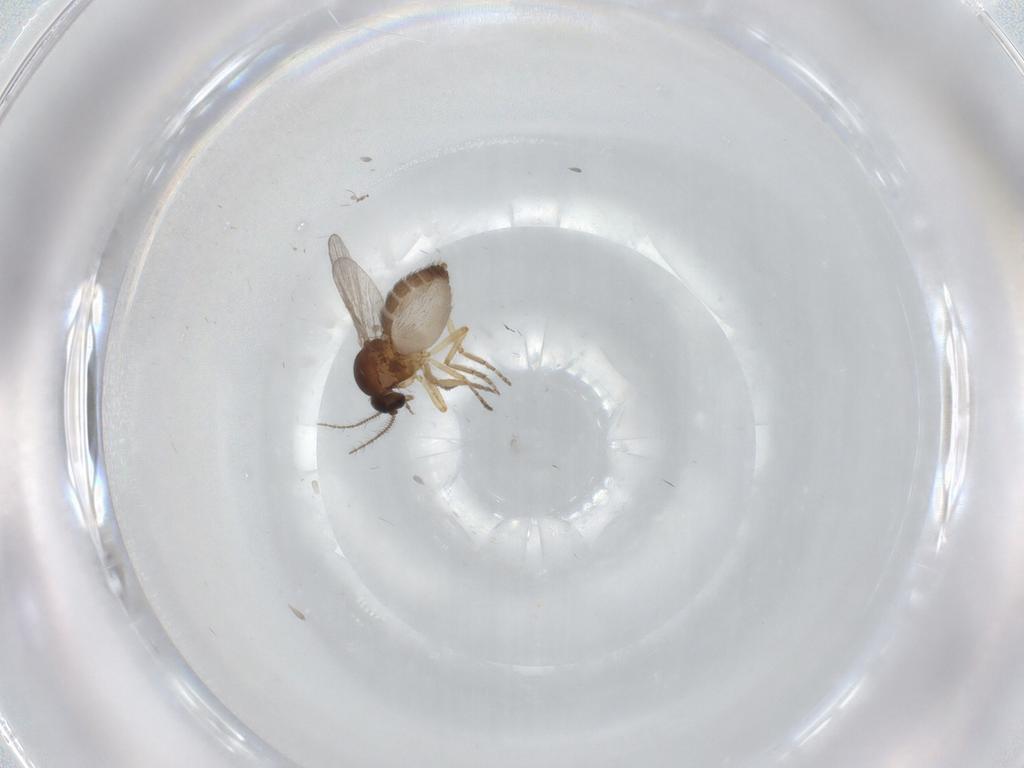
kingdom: Animalia
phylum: Arthropoda
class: Insecta
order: Diptera
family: Ceratopogonidae
